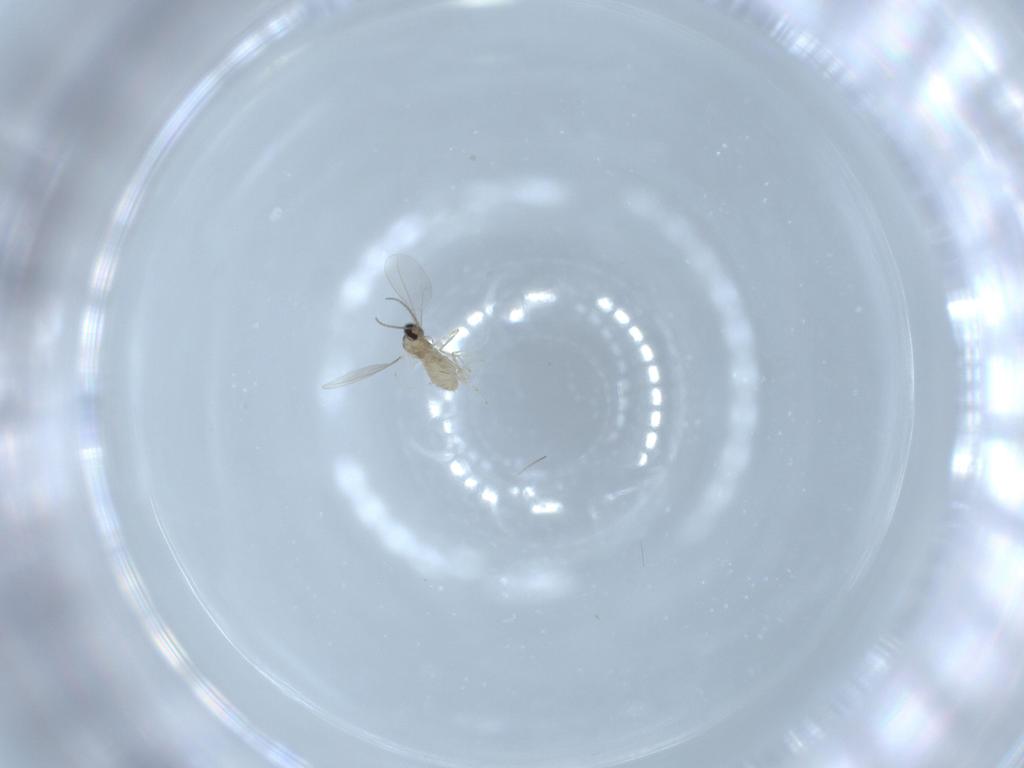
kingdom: Animalia
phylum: Arthropoda
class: Insecta
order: Diptera
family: Cecidomyiidae
